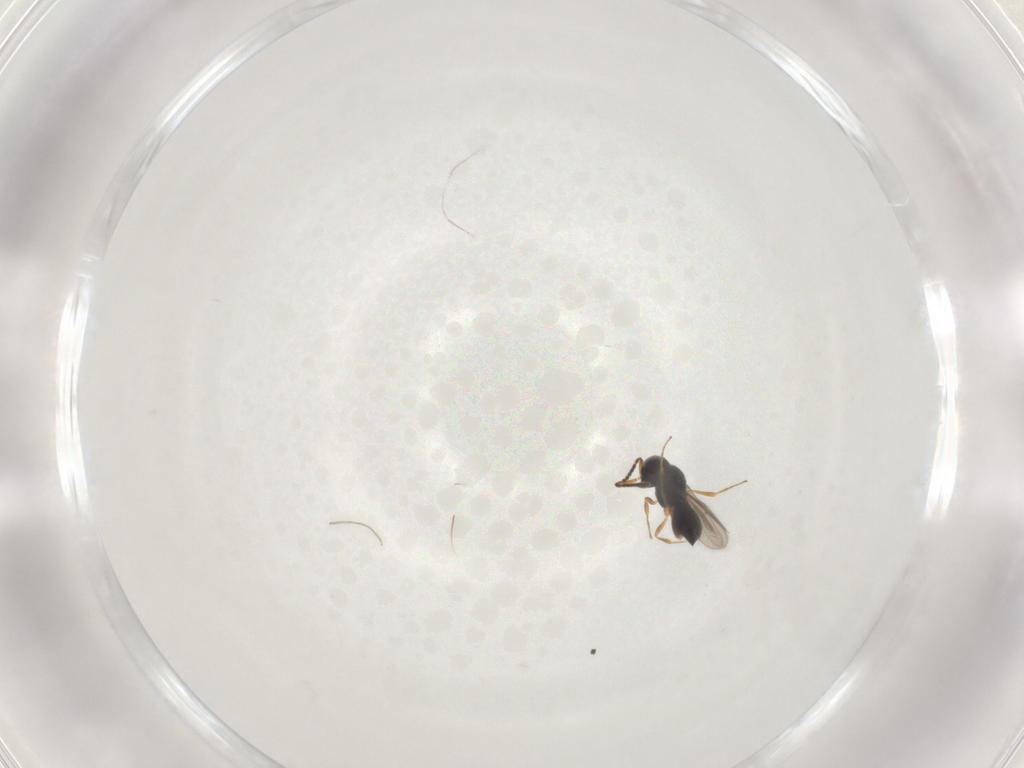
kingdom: Animalia
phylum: Arthropoda
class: Insecta
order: Hymenoptera
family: Scelionidae
